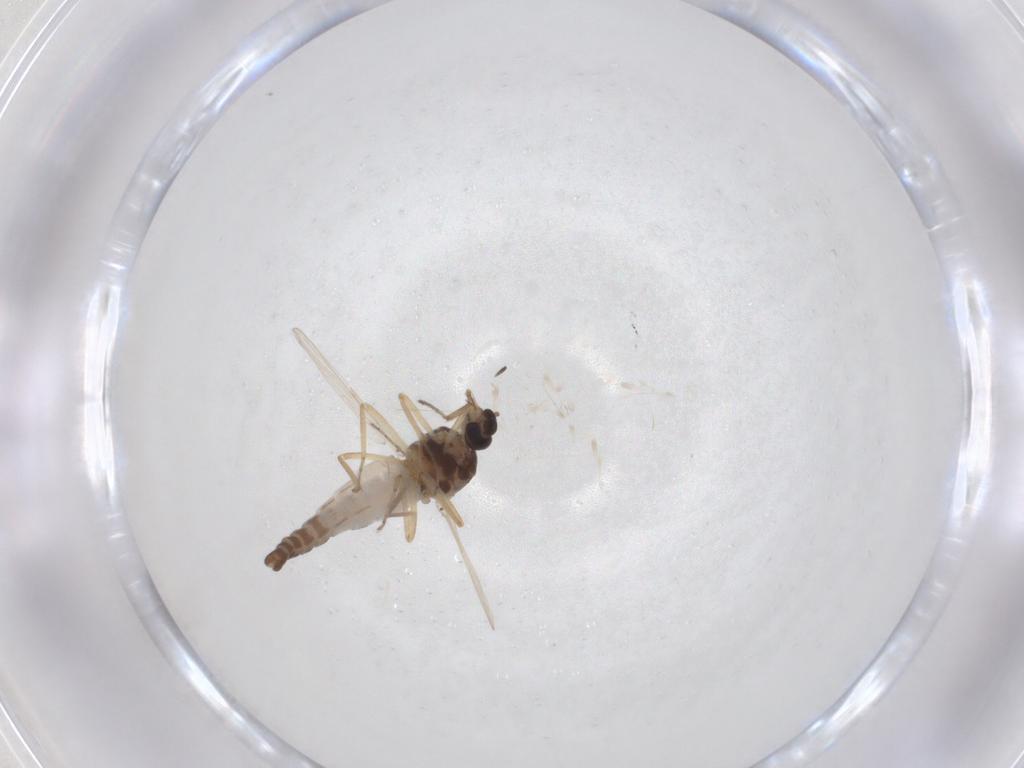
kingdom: Animalia
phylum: Arthropoda
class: Insecta
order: Diptera
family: Ceratopogonidae
